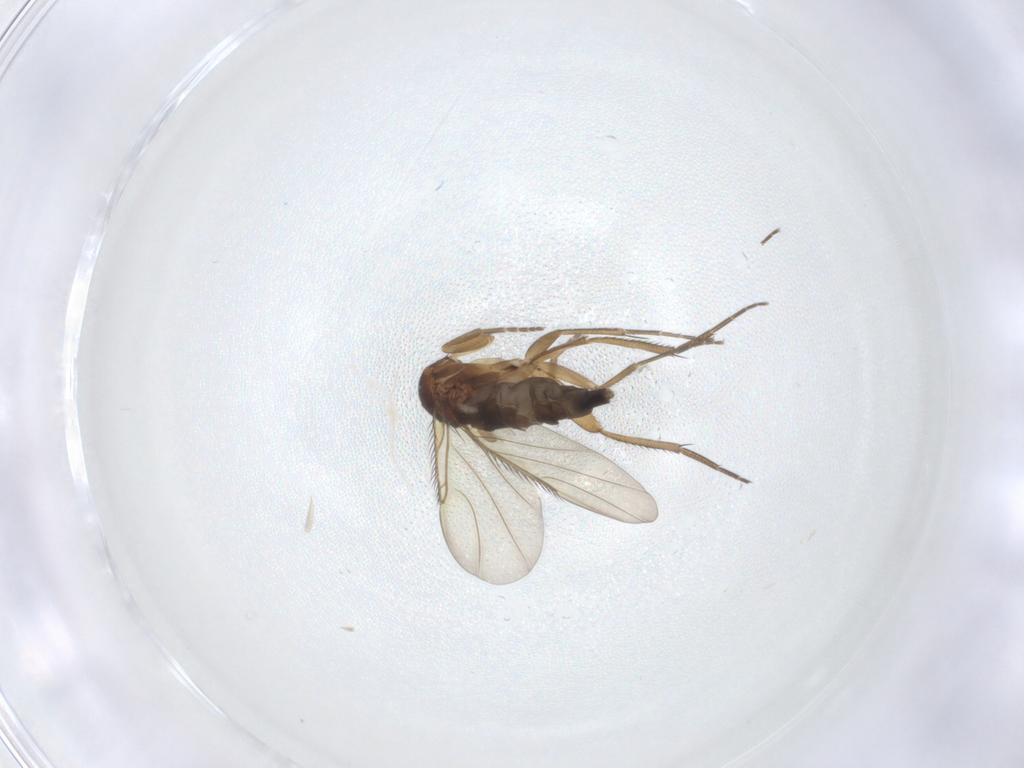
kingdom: Animalia
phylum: Arthropoda
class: Insecta
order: Diptera
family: Phoridae
